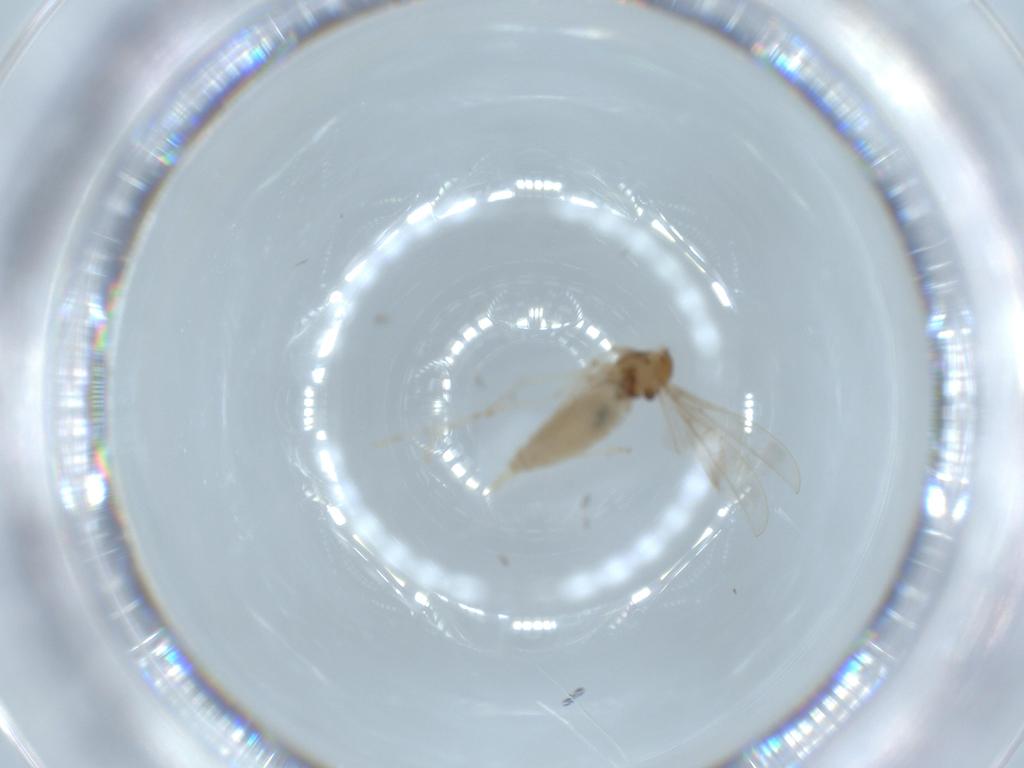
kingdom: Animalia
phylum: Arthropoda
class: Insecta
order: Diptera
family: Cecidomyiidae
